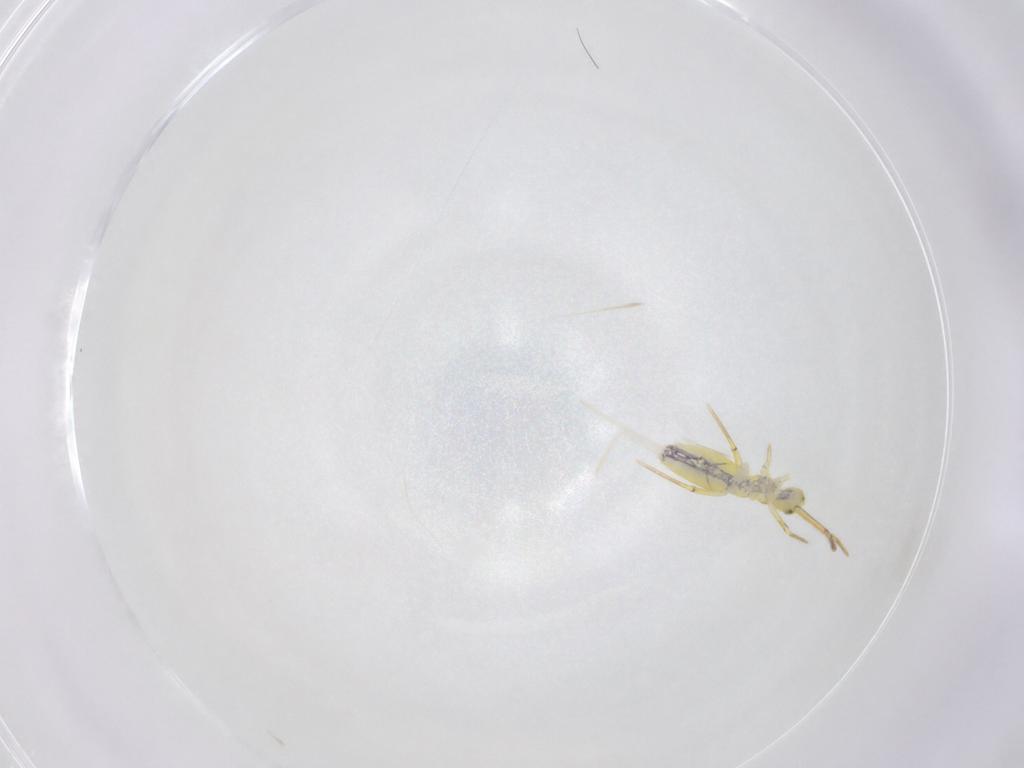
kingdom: Animalia
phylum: Arthropoda
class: Collembola
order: Entomobryomorpha
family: Entomobryidae
